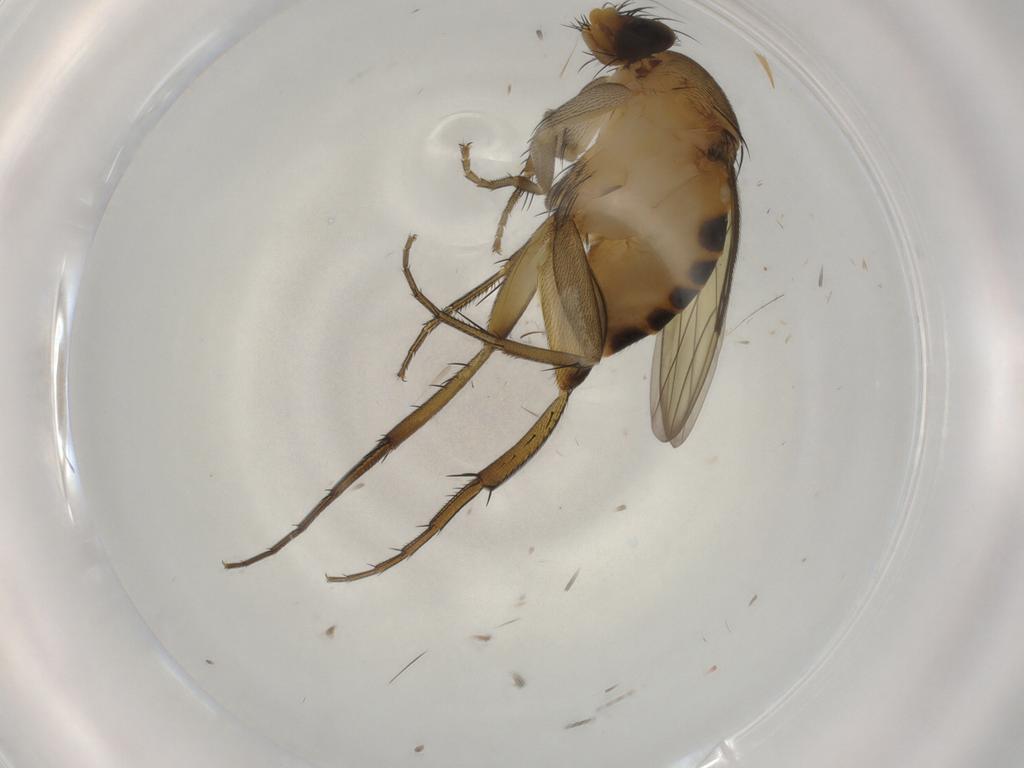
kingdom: Animalia
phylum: Arthropoda
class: Insecta
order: Diptera
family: Phoridae
